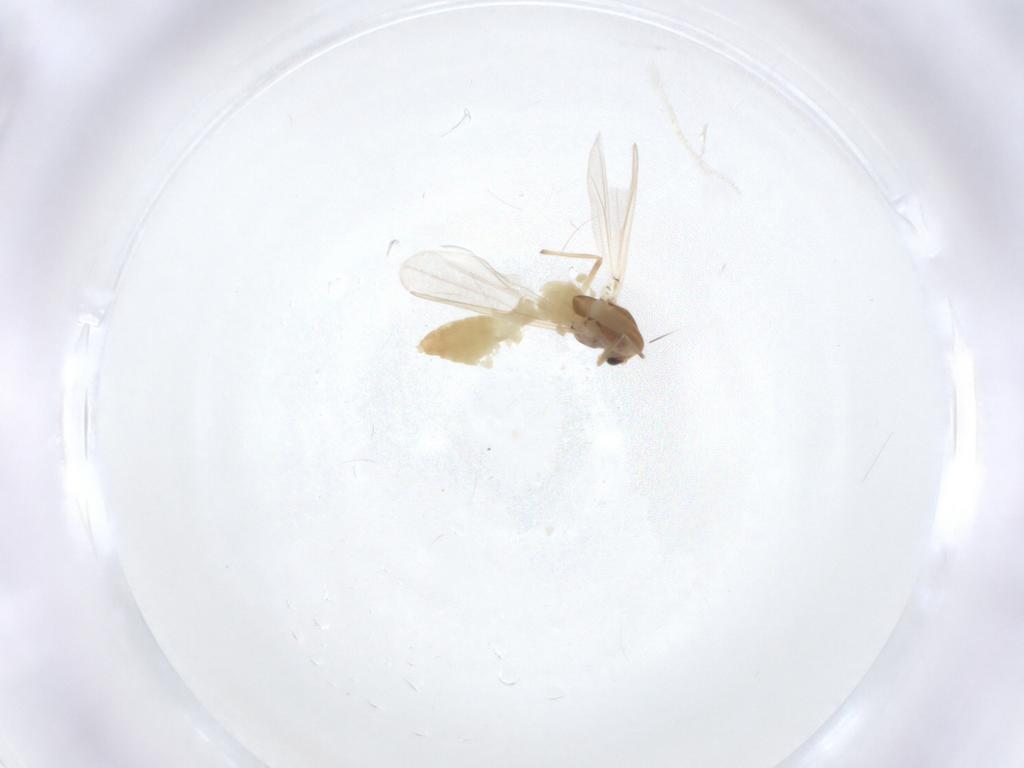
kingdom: Animalia
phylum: Arthropoda
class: Insecta
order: Diptera
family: Chironomidae
